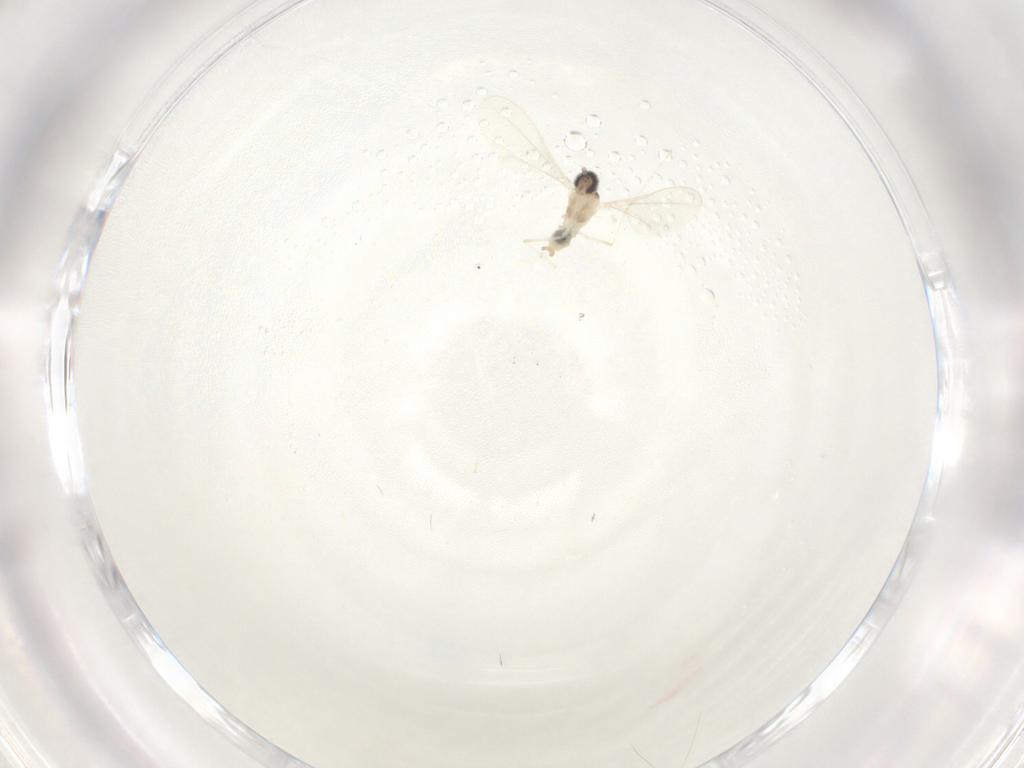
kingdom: Animalia
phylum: Arthropoda
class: Insecta
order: Diptera
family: Cecidomyiidae
